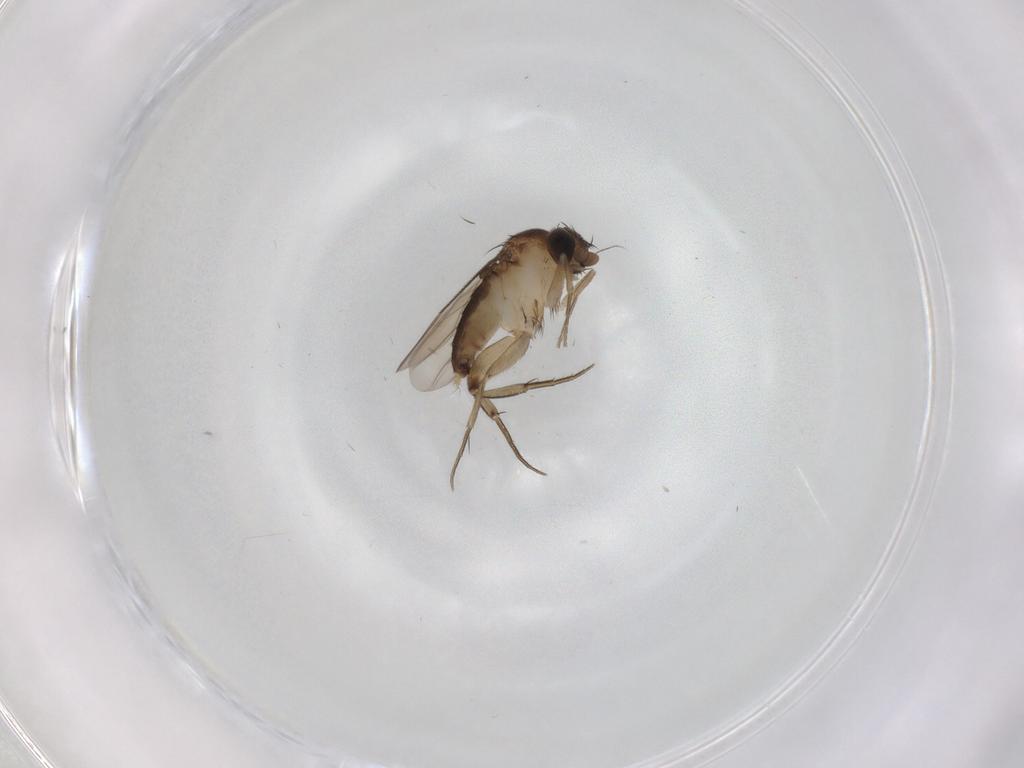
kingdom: Animalia
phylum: Arthropoda
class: Insecta
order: Diptera
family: Phoridae
